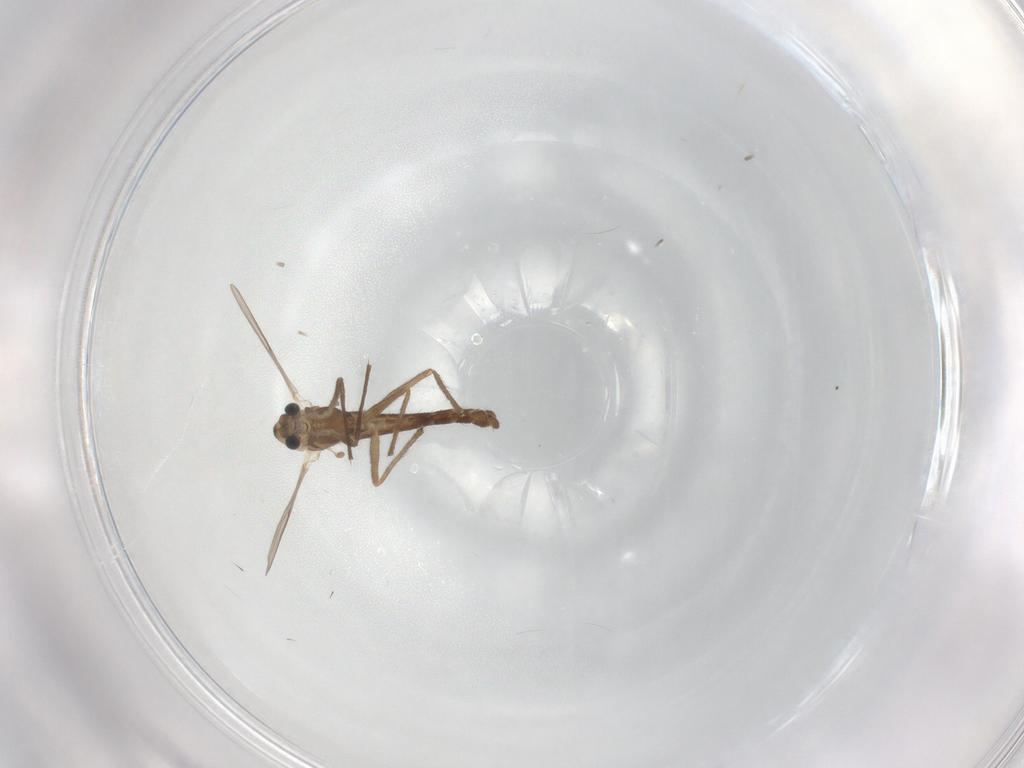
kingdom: Animalia
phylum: Arthropoda
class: Insecta
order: Diptera
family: Chironomidae
